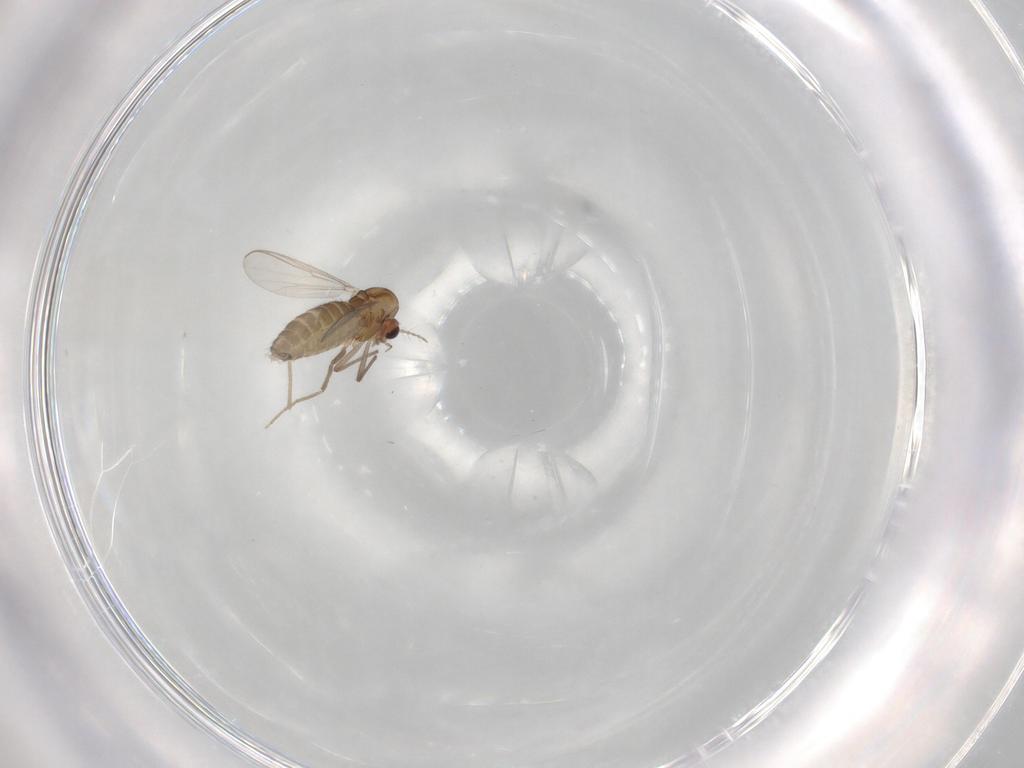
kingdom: Animalia
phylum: Arthropoda
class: Insecta
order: Diptera
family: Chironomidae
